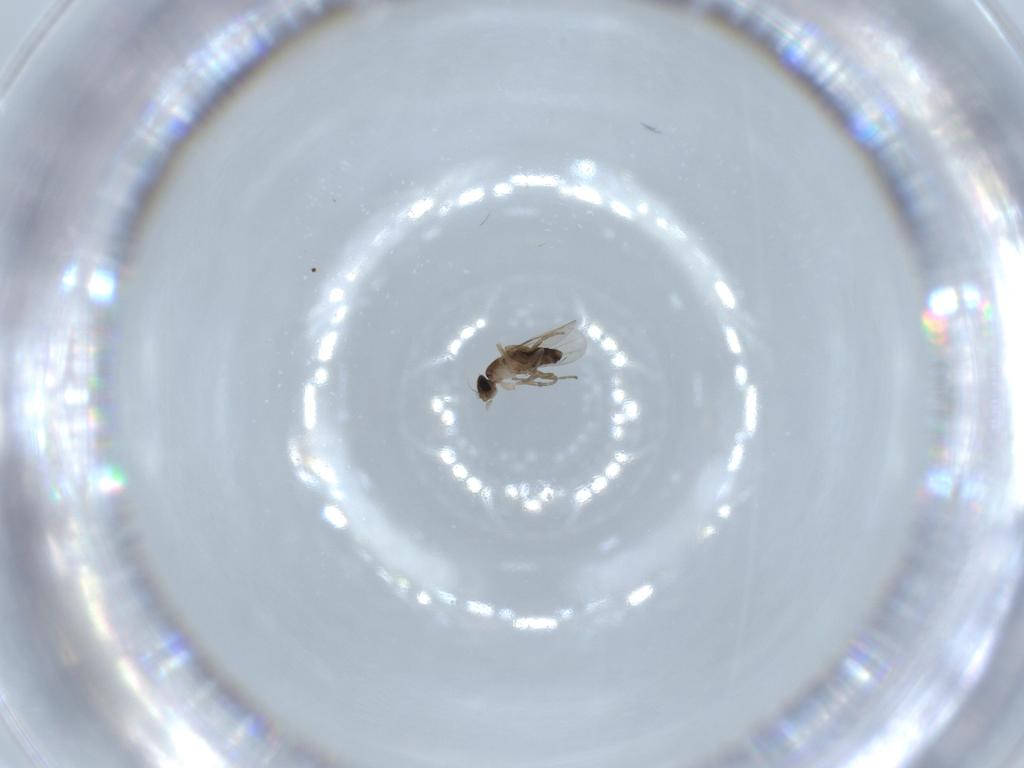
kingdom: Animalia
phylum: Arthropoda
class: Insecta
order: Diptera
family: Phoridae
